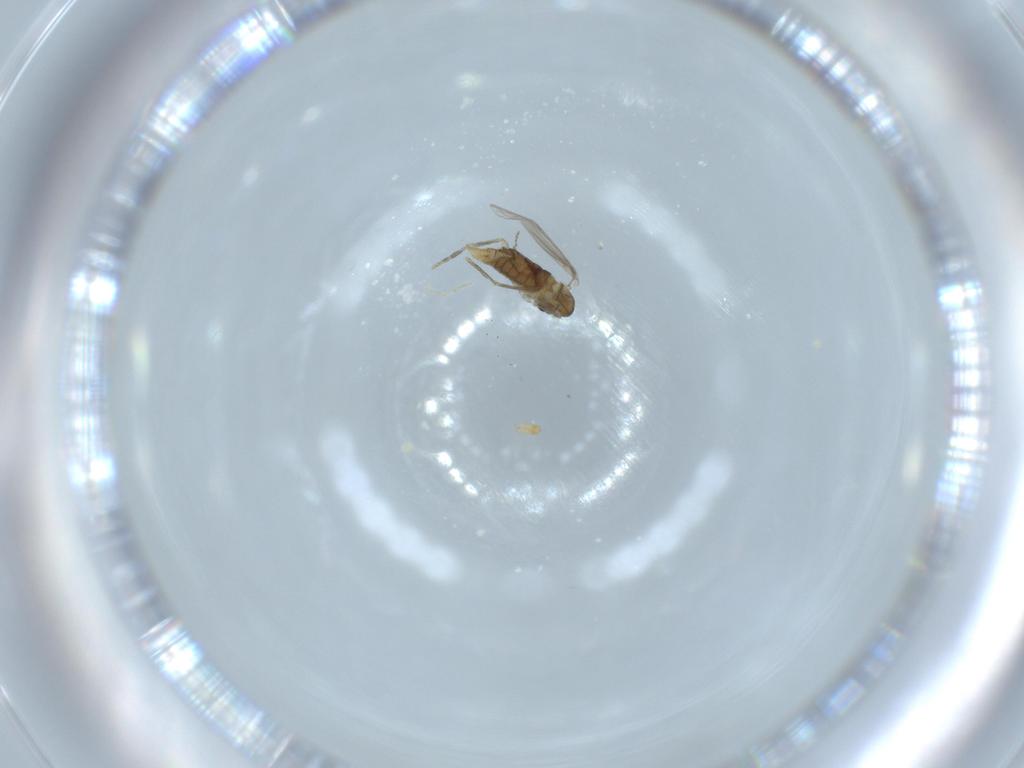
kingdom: Animalia
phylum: Arthropoda
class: Insecta
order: Diptera
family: Psychodidae
